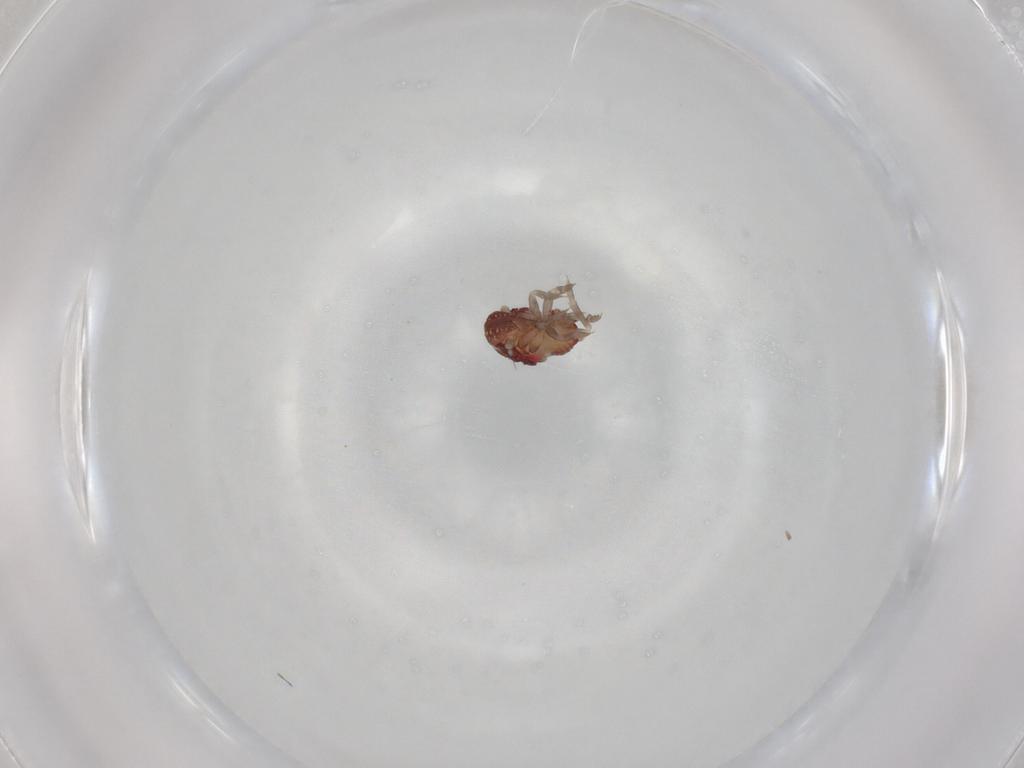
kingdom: Animalia
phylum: Arthropoda
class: Insecta
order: Hemiptera
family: Fulgoroidea_incertae_sedis
